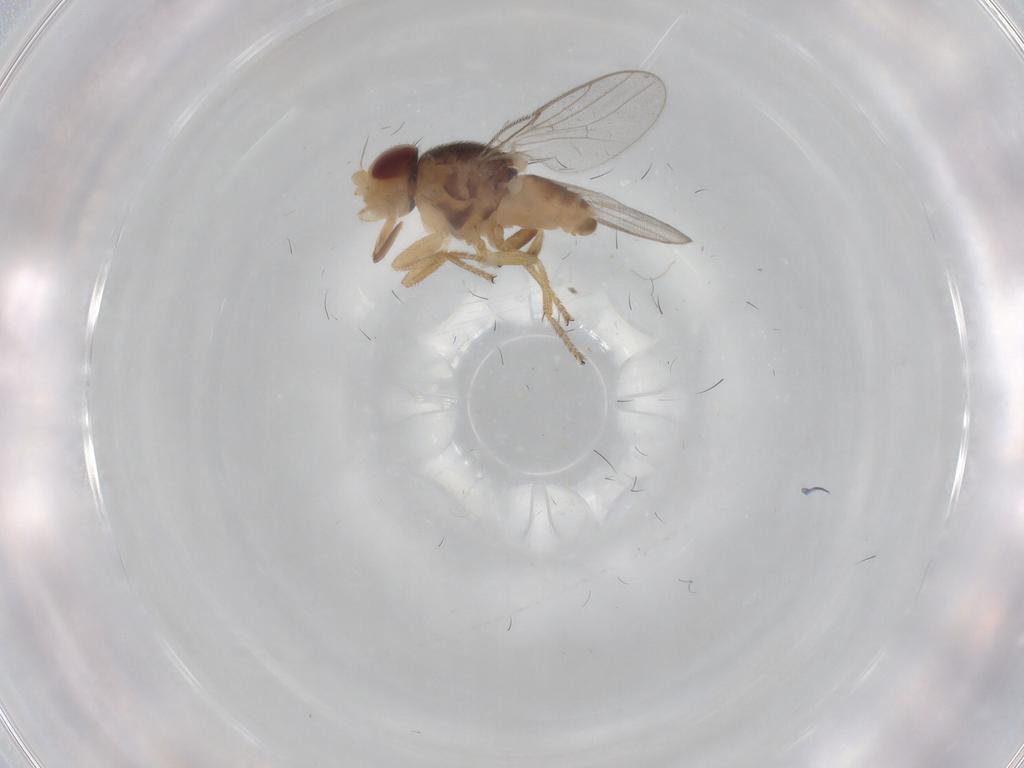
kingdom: Animalia
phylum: Arthropoda
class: Insecta
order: Diptera
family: Chloropidae
